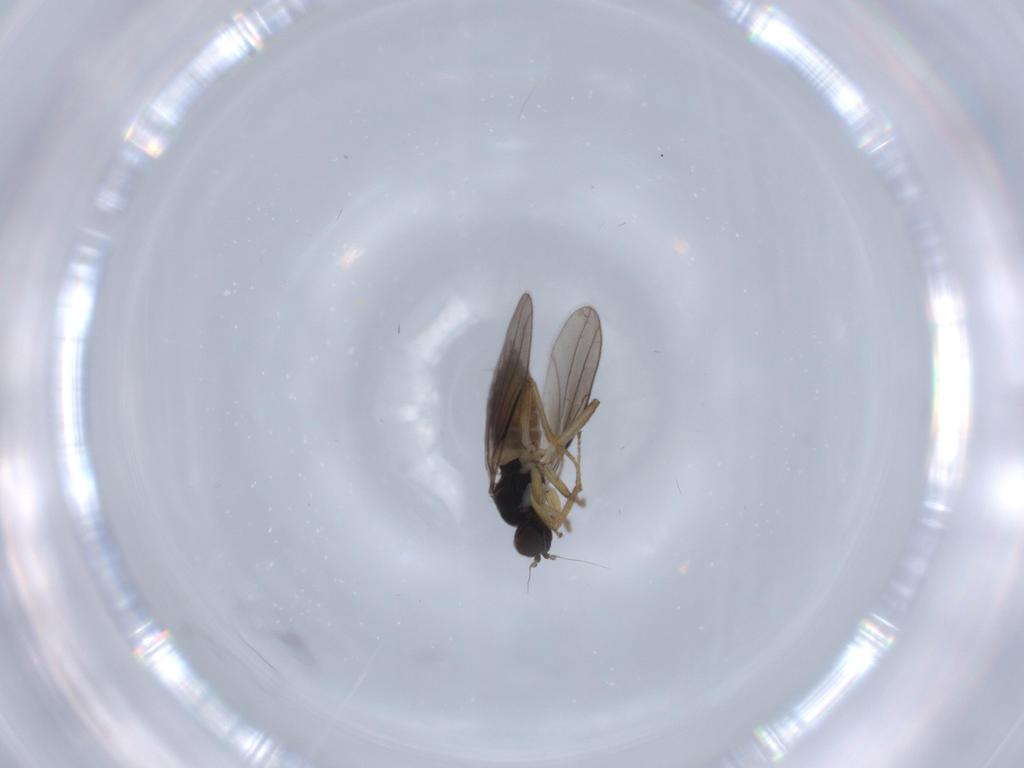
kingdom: Animalia
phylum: Arthropoda
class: Insecta
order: Diptera
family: Hybotidae
